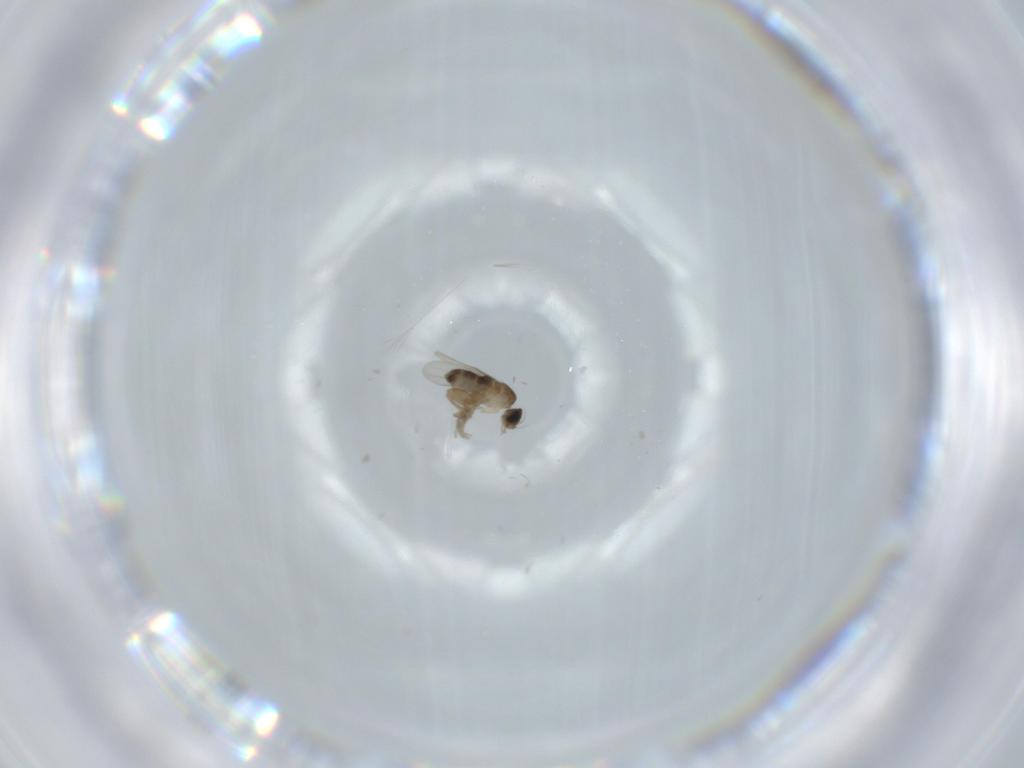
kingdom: Animalia
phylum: Arthropoda
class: Insecta
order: Diptera
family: Phoridae
